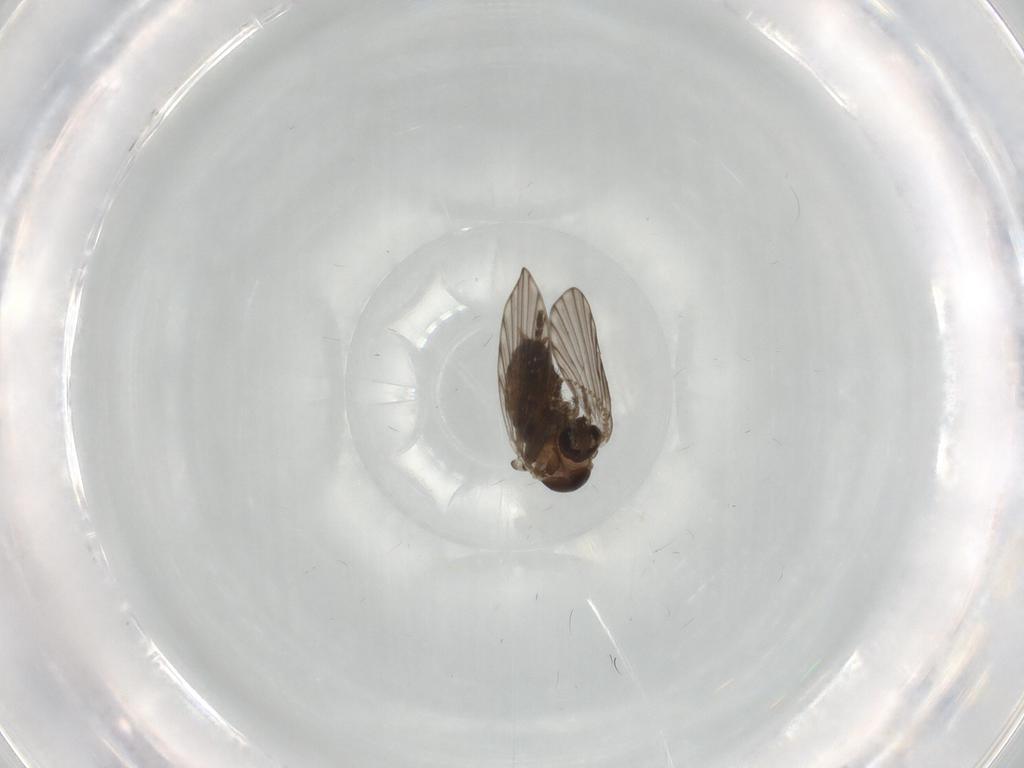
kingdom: Animalia
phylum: Arthropoda
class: Insecta
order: Diptera
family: Psychodidae
